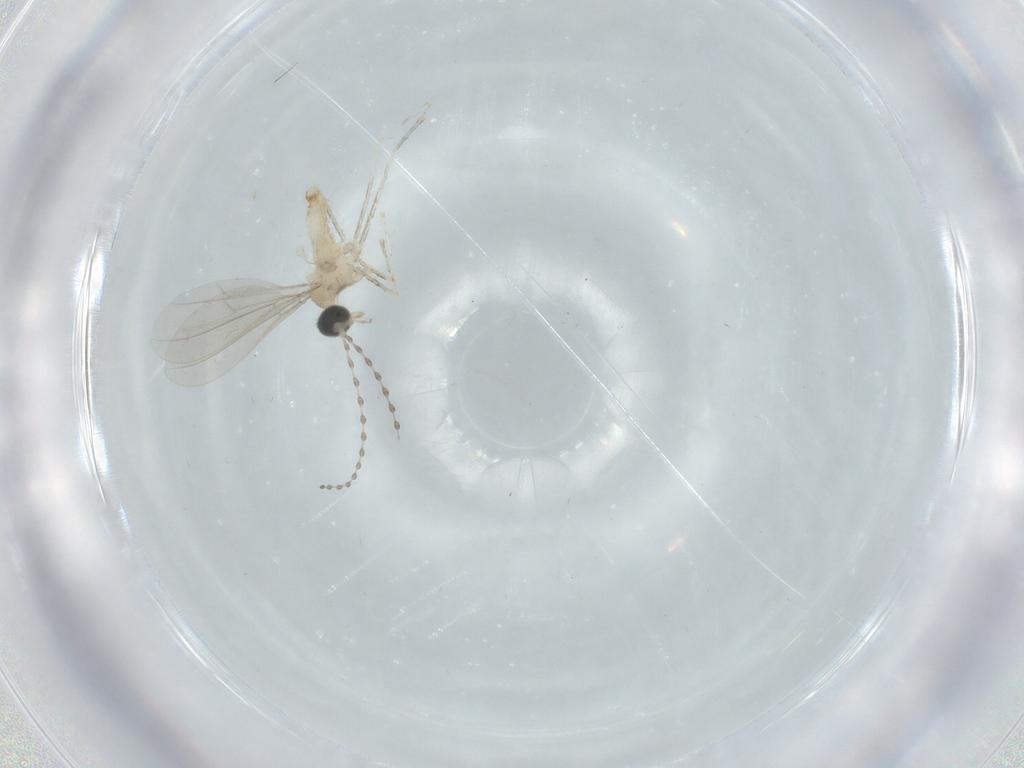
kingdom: Animalia
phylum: Arthropoda
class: Insecta
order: Diptera
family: Cecidomyiidae
